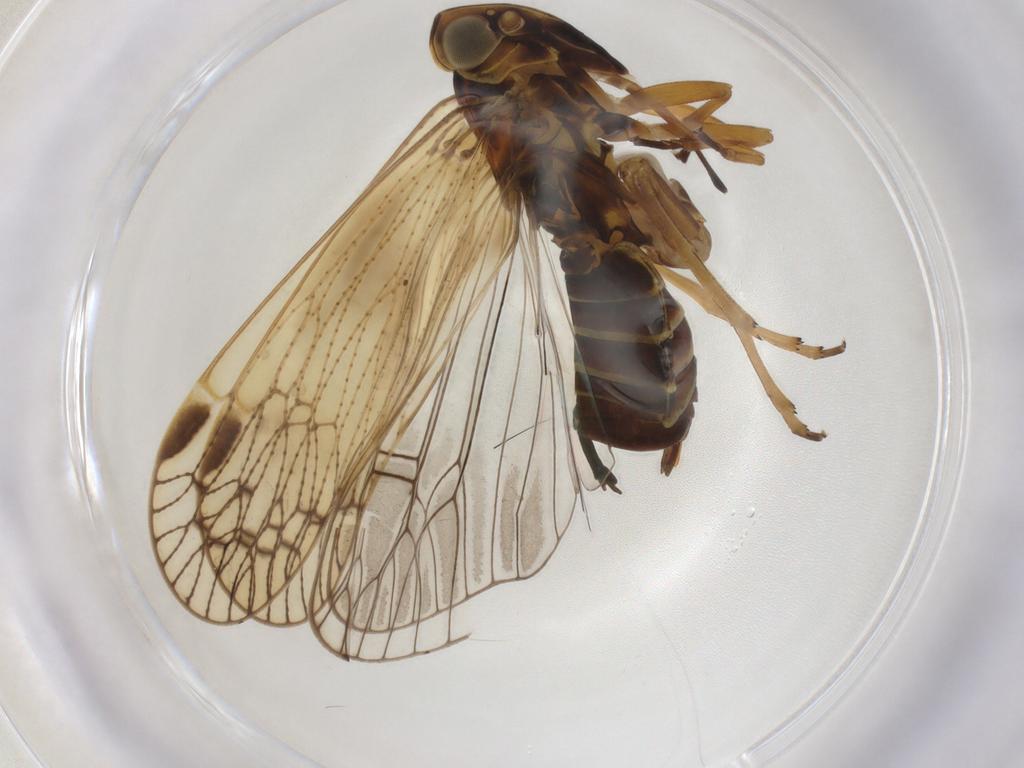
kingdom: Animalia
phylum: Arthropoda
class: Insecta
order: Hemiptera
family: Cixiidae
